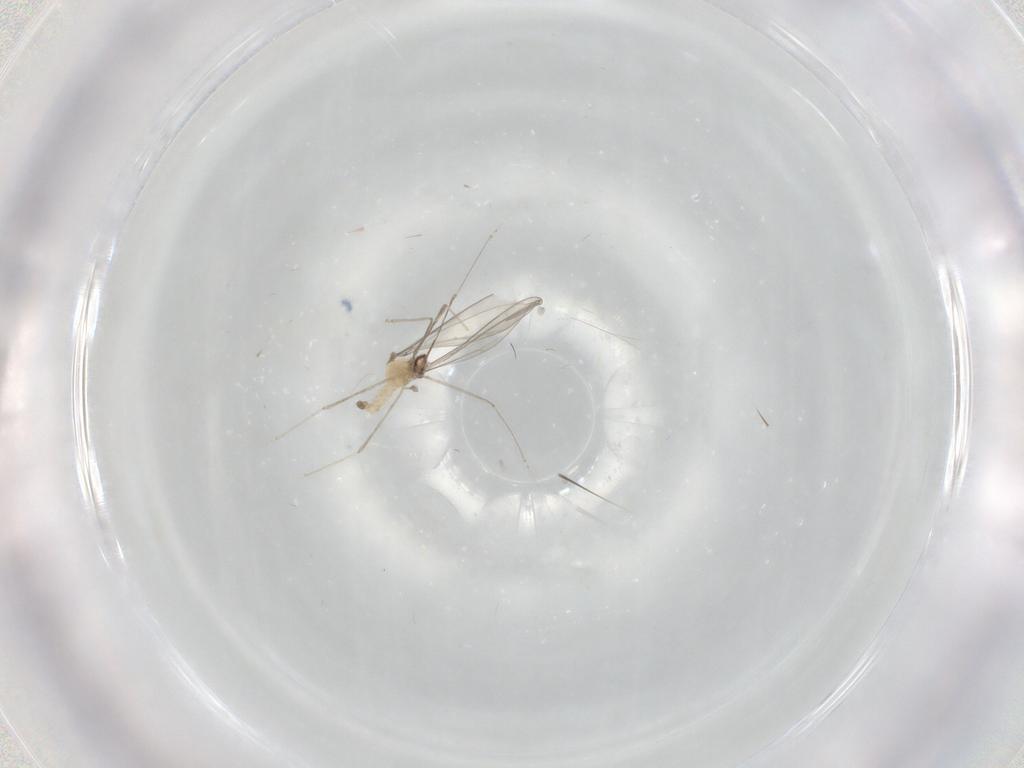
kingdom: Animalia
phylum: Arthropoda
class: Insecta
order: Diptera
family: Cecidomyiidae
